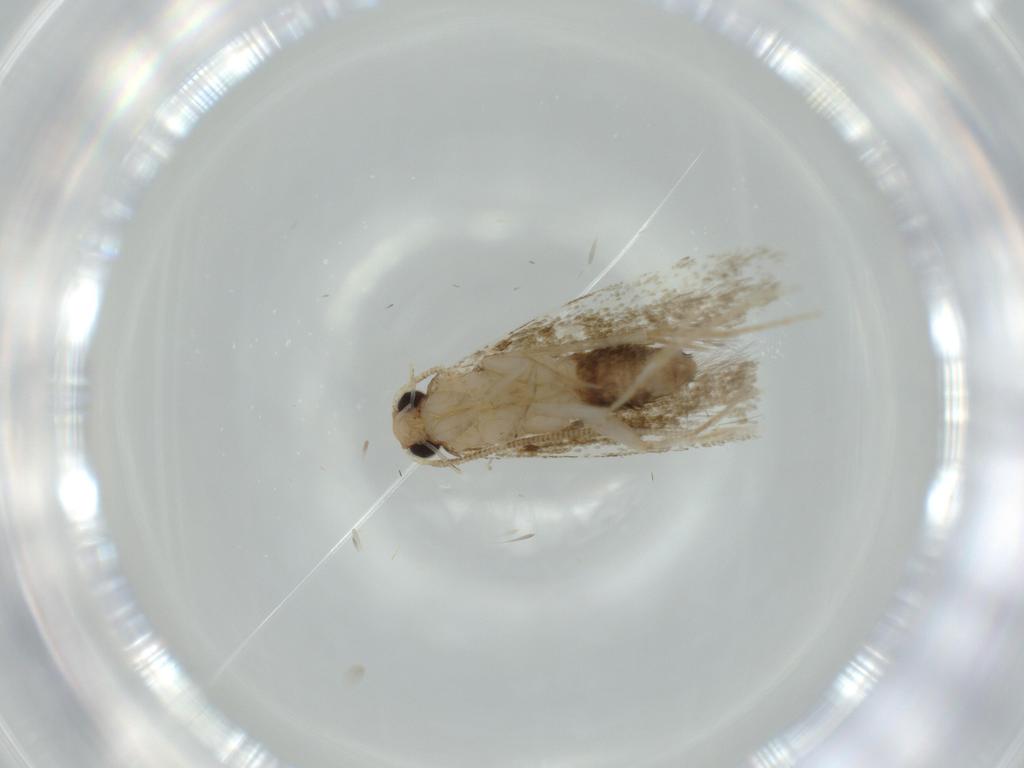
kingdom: Animalia
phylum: Arthropoda
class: Insecta
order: Lepidoptera
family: Meessiidae
